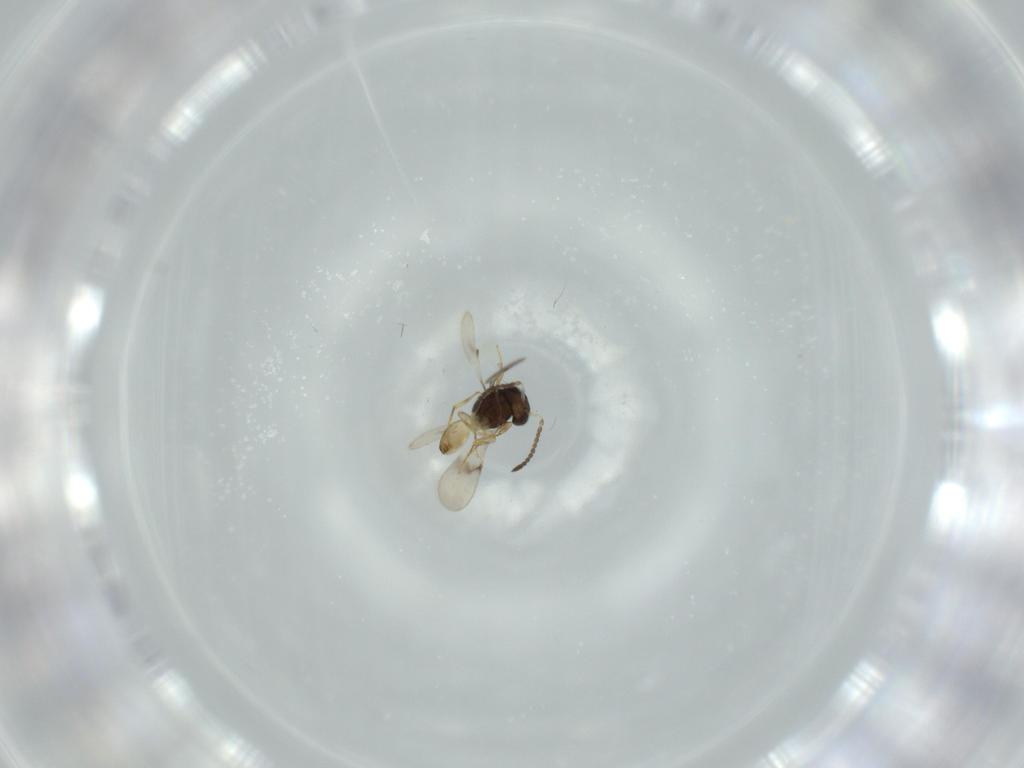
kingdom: Animalia
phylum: Arthropoda
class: Insecta
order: Hymenoptera
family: Scelionidae
